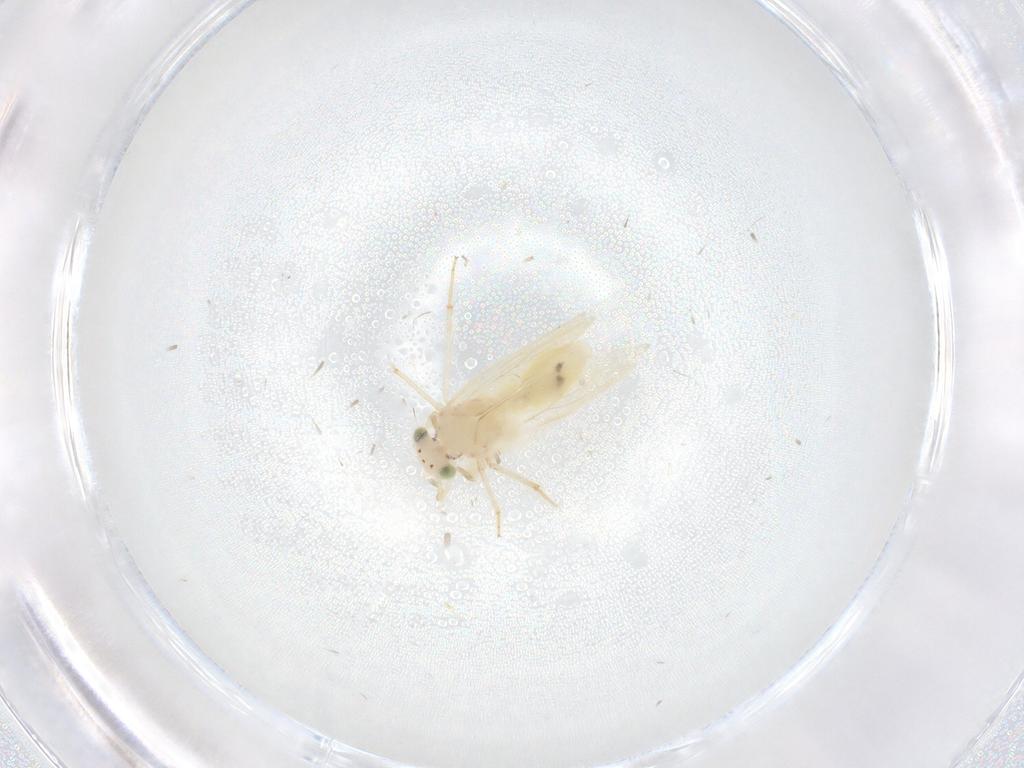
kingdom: Animalia
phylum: Arthropoda
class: Insecta
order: Psocodea
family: Lepidopsocidae
